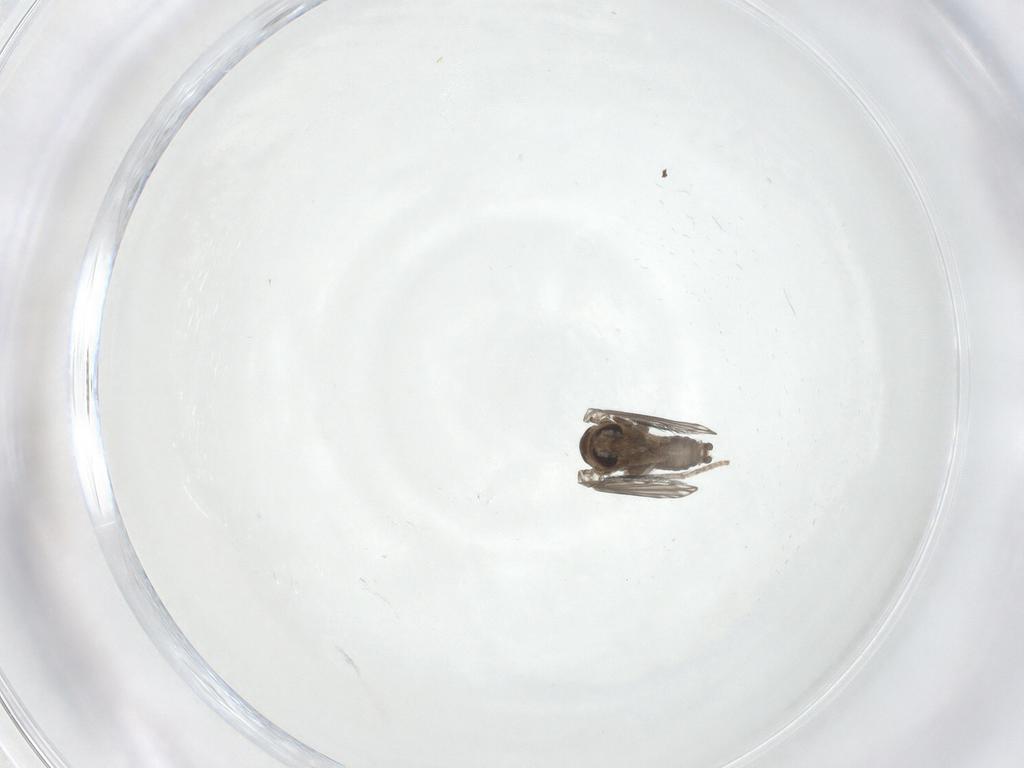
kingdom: Animalia
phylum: Arthropoda
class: Insecta
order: Diptera
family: Psychodidae
